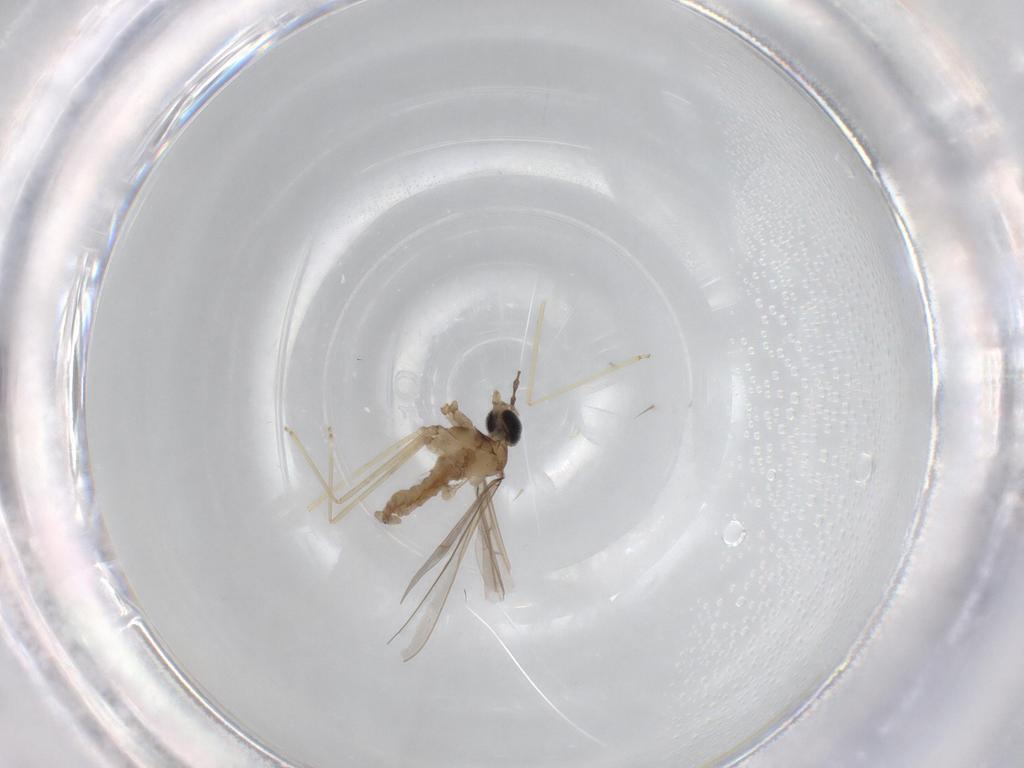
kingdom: Animalia
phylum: Arthropoda
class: Insecta
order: Diptera
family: Cecidomyiidae
